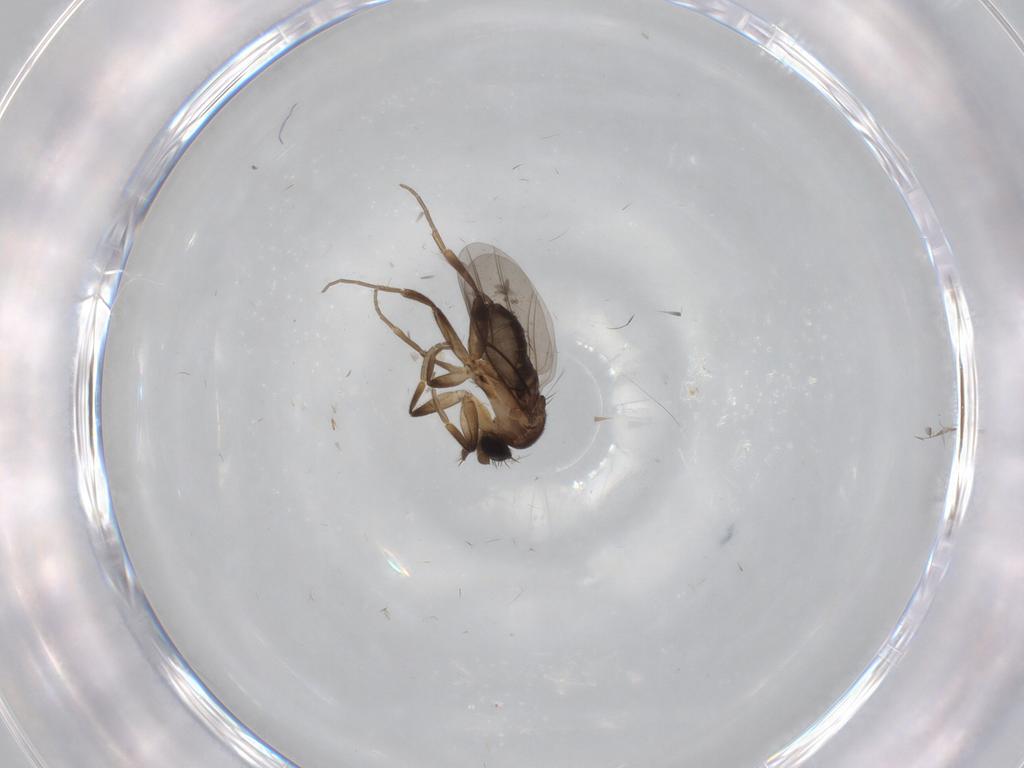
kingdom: Animalia
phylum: Arthropoda
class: Insecta
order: Diptera
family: Phoridae
